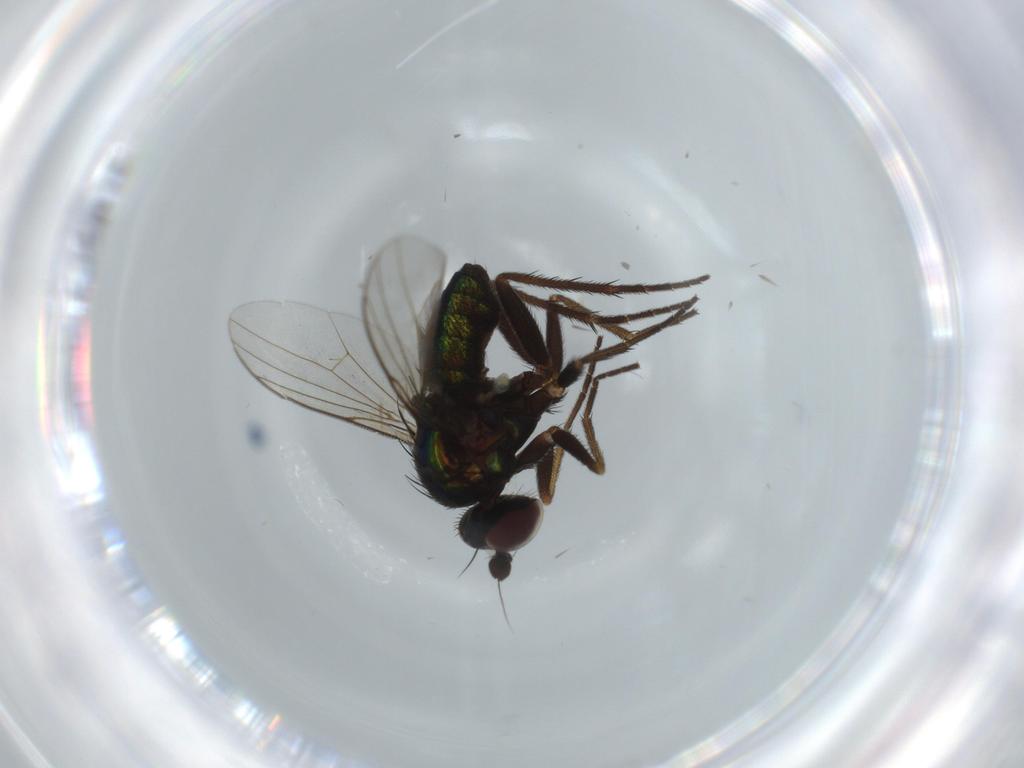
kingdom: Animalia
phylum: Arthropoda
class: Insecta
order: Diptera
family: Dolichopodidae
